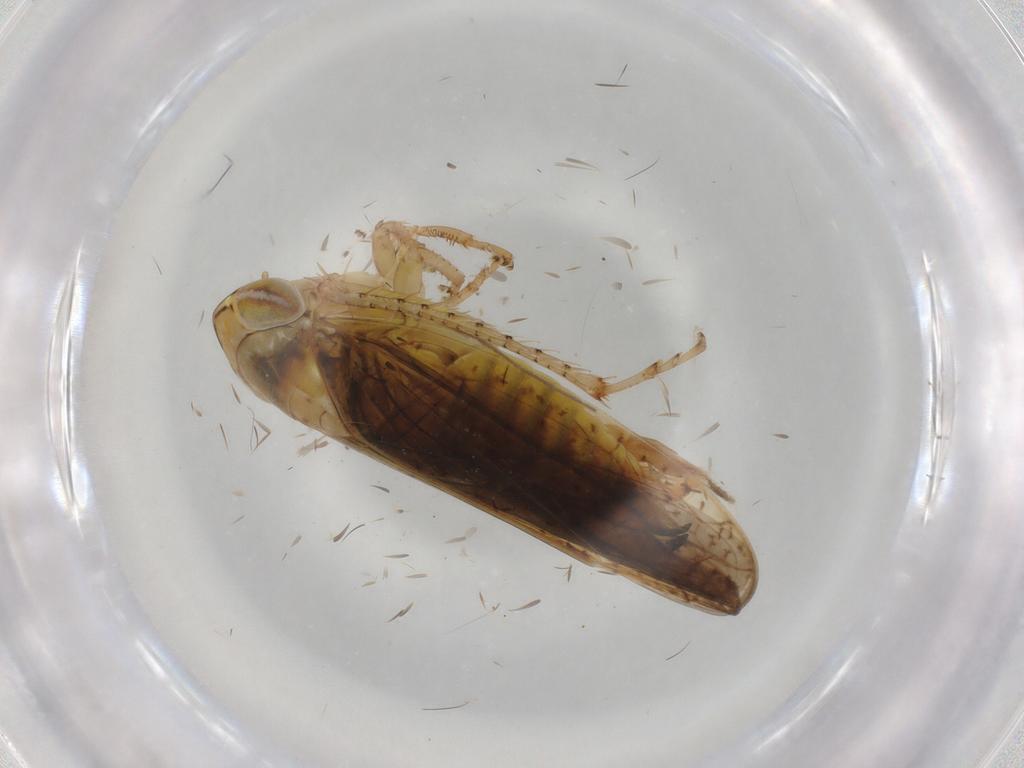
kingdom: Animalia
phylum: Arthropoda
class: Insecta
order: Hemiptera
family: Cicadellidae
